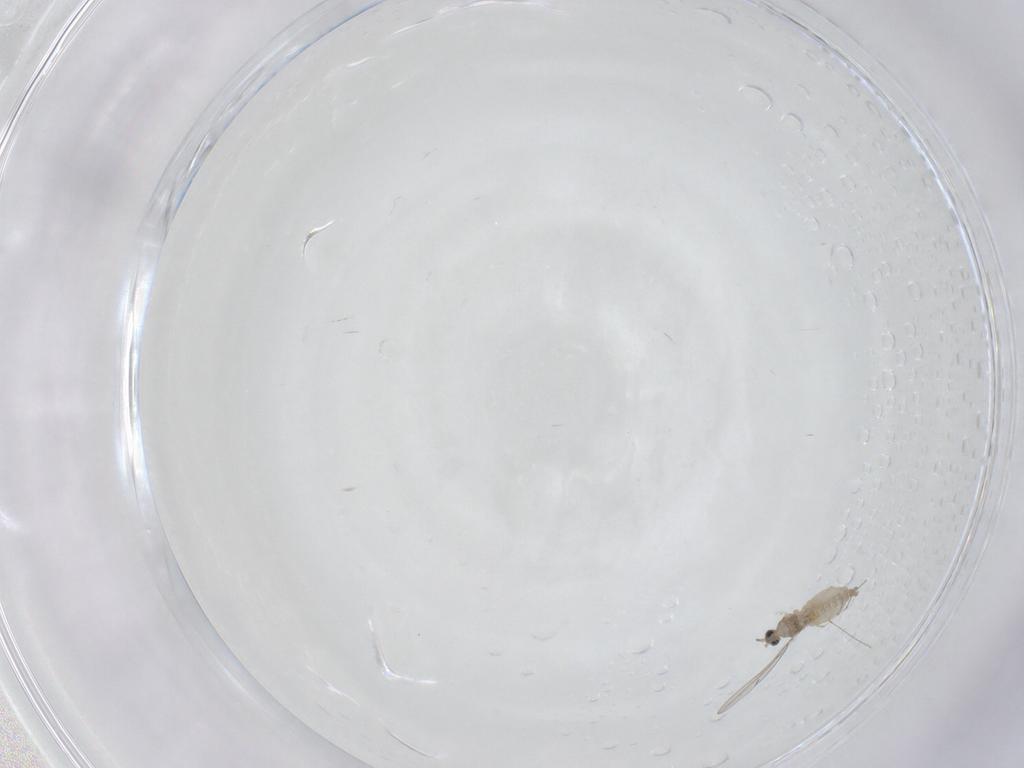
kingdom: Animalia
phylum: Arthropoda
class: Insecta
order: Diptera
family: Cecidomyiidae
